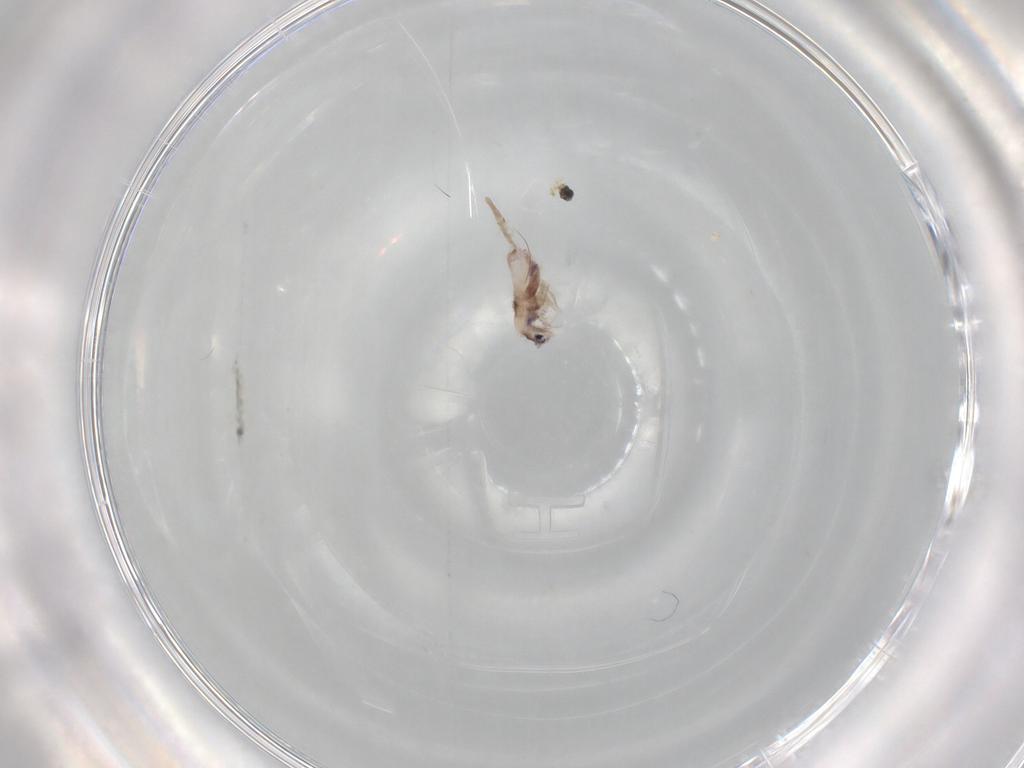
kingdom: Animalia
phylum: Arthropoda
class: Collembola
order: Entomobryomorpha
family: Entomobryidae
